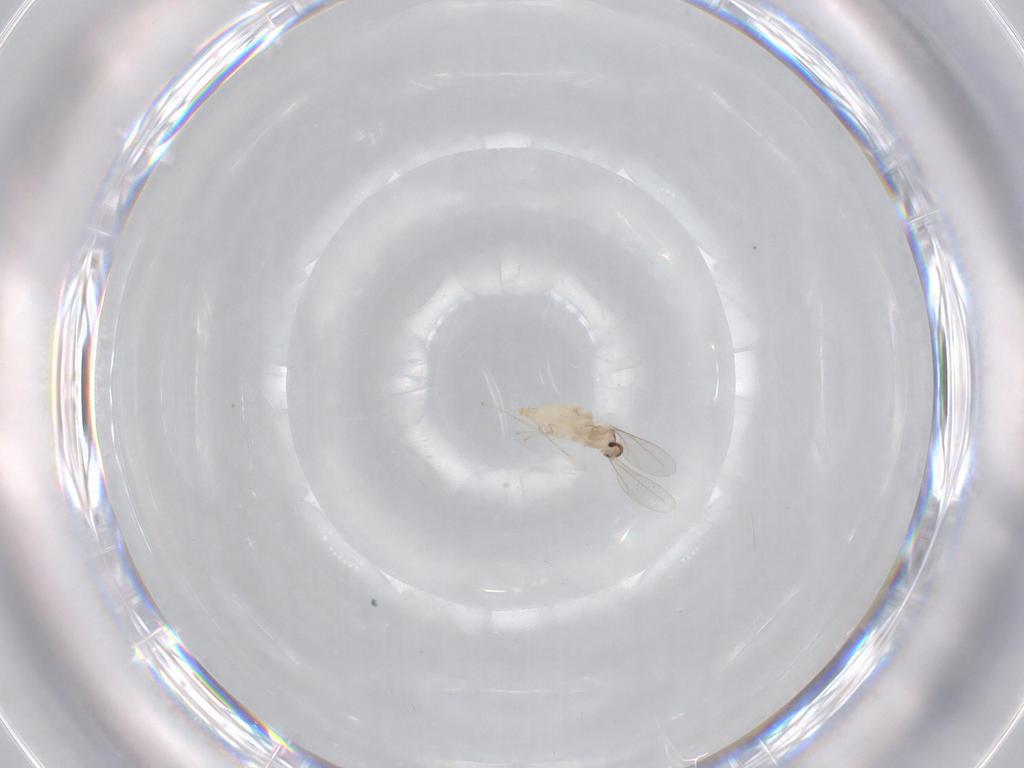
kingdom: Animalia
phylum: Arthropoda
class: Insecta
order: Diptera
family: Cecidomyiidae
